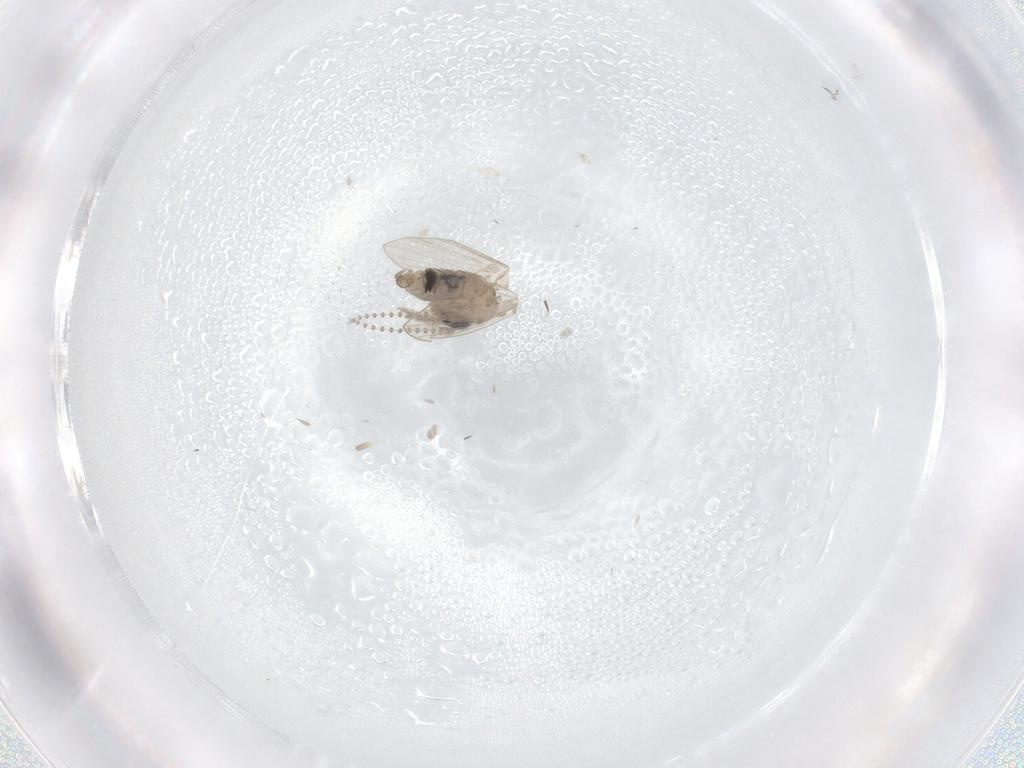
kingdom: Animalia
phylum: Arthropoda
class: Insecta
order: Diptera
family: Psychodidae
